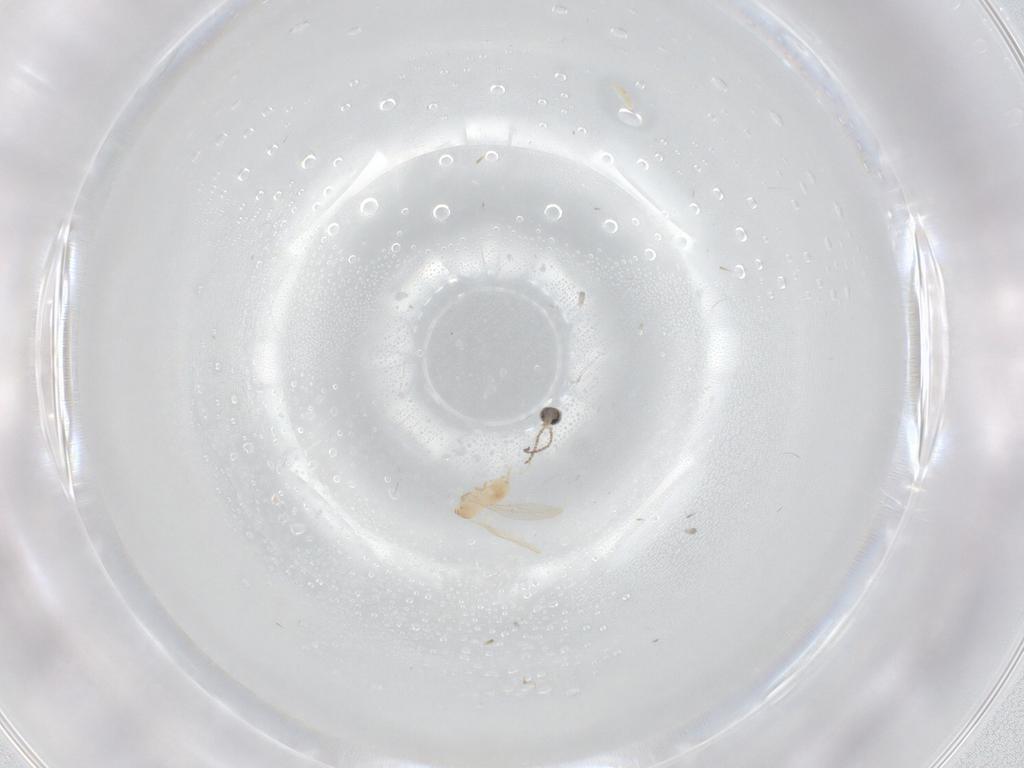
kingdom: Animalia
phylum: Arthropoda
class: Insecta
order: Diptera
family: Cecidomyiidae
